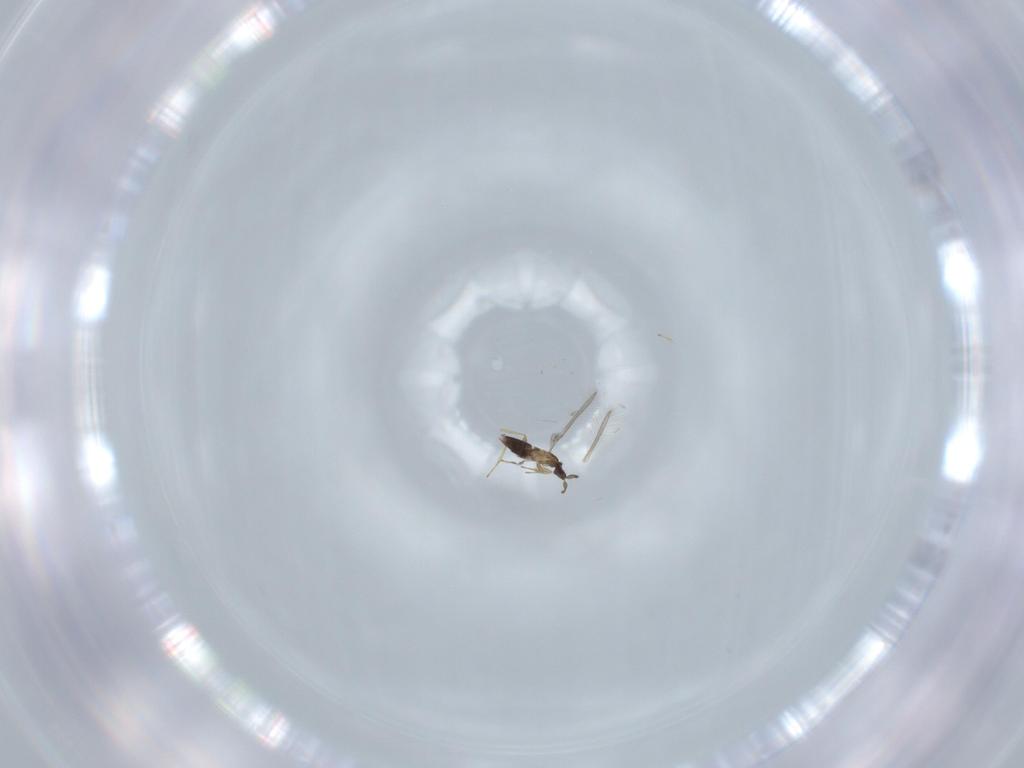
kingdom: Animalia
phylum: Arthropoda
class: Insecta
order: Hymenoptera
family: Mymaridae
